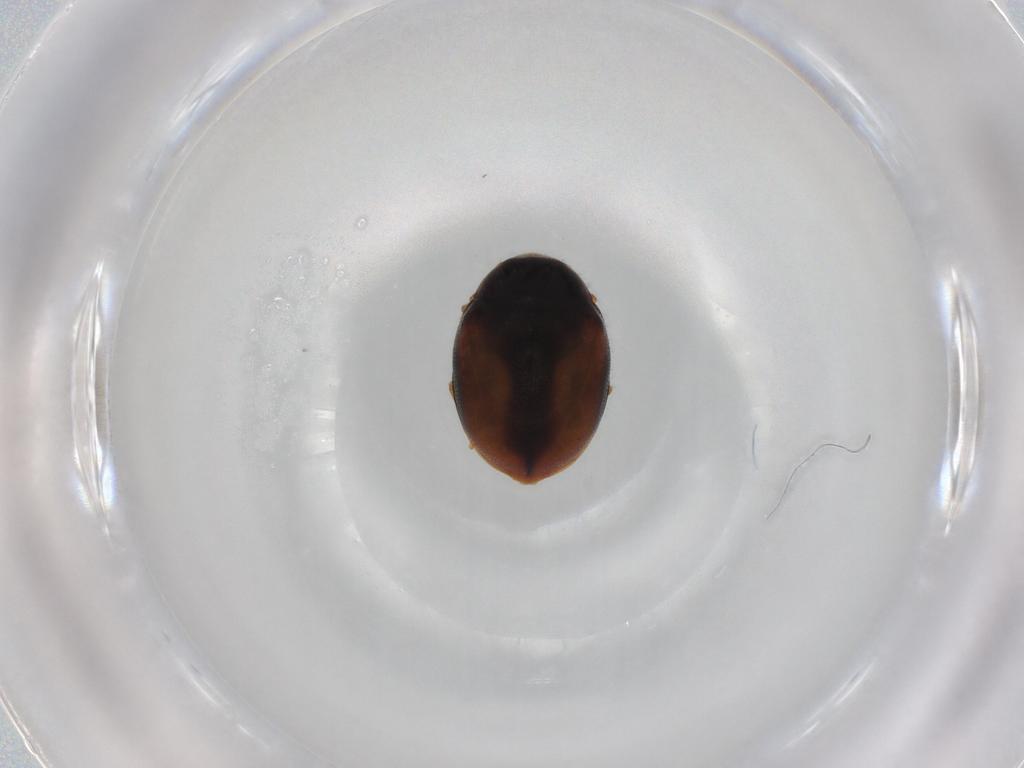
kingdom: Animalia
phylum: Arthropoda
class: Insecta
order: Coleoptera
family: Coccinellidae
